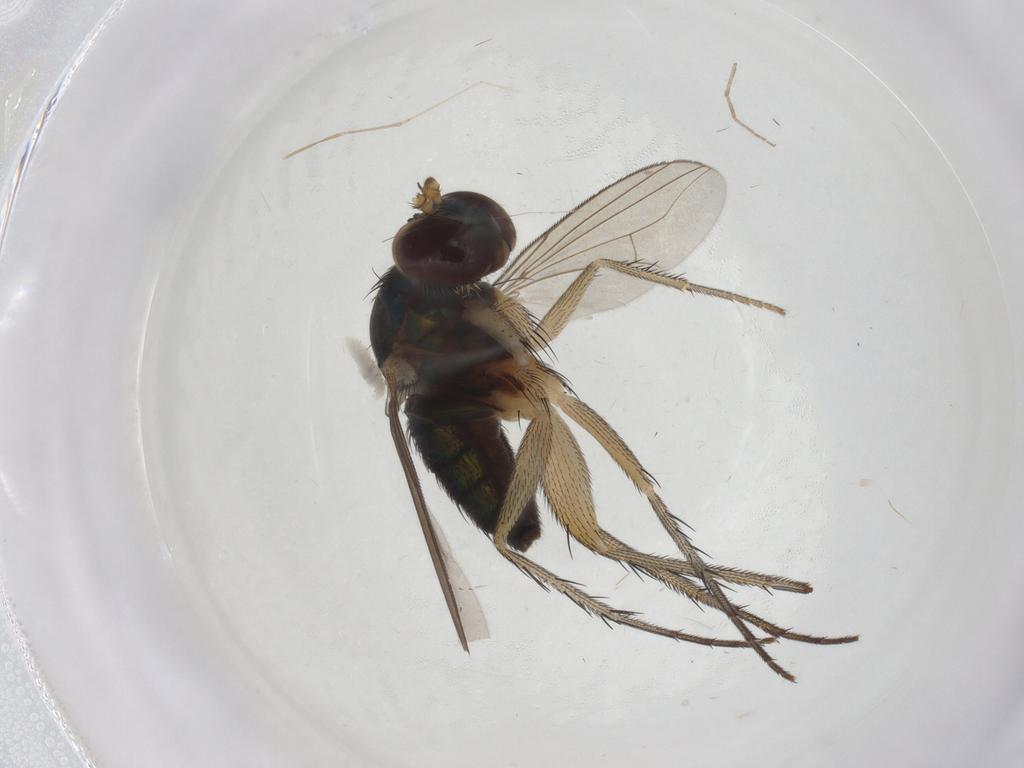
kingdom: Animalia
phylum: Arthropoda
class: Insecta
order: Diptera
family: Dolichopodidae
